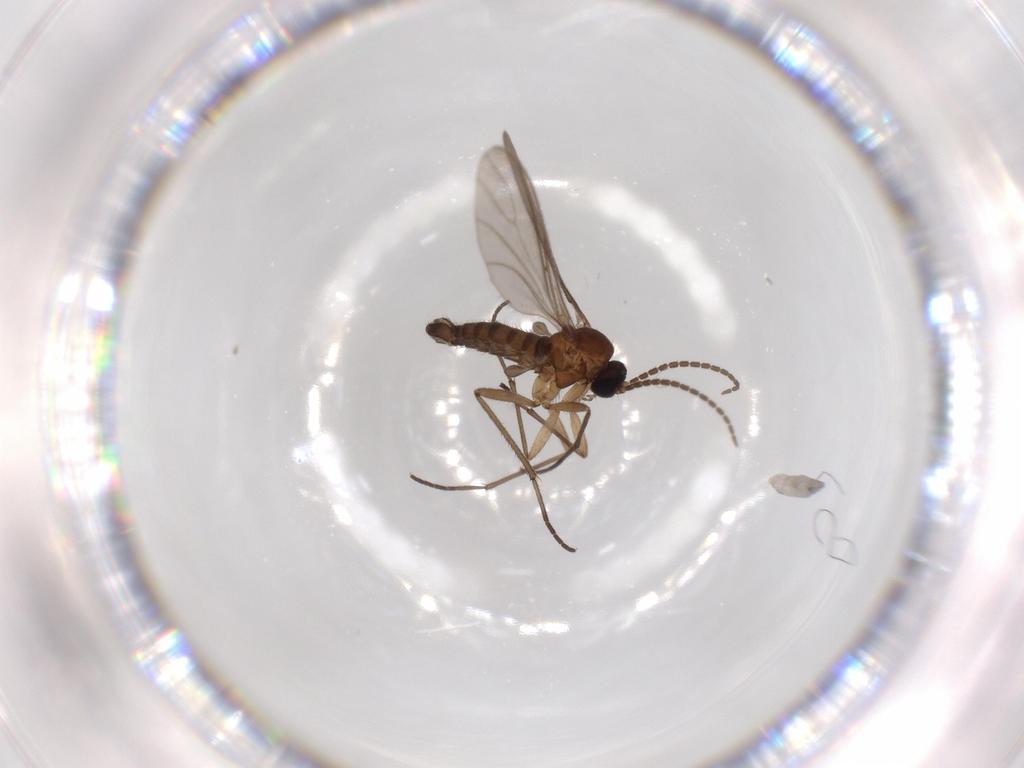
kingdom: Animalia
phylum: Arthropoda
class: Insecta
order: Diptera
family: Sciaridae
